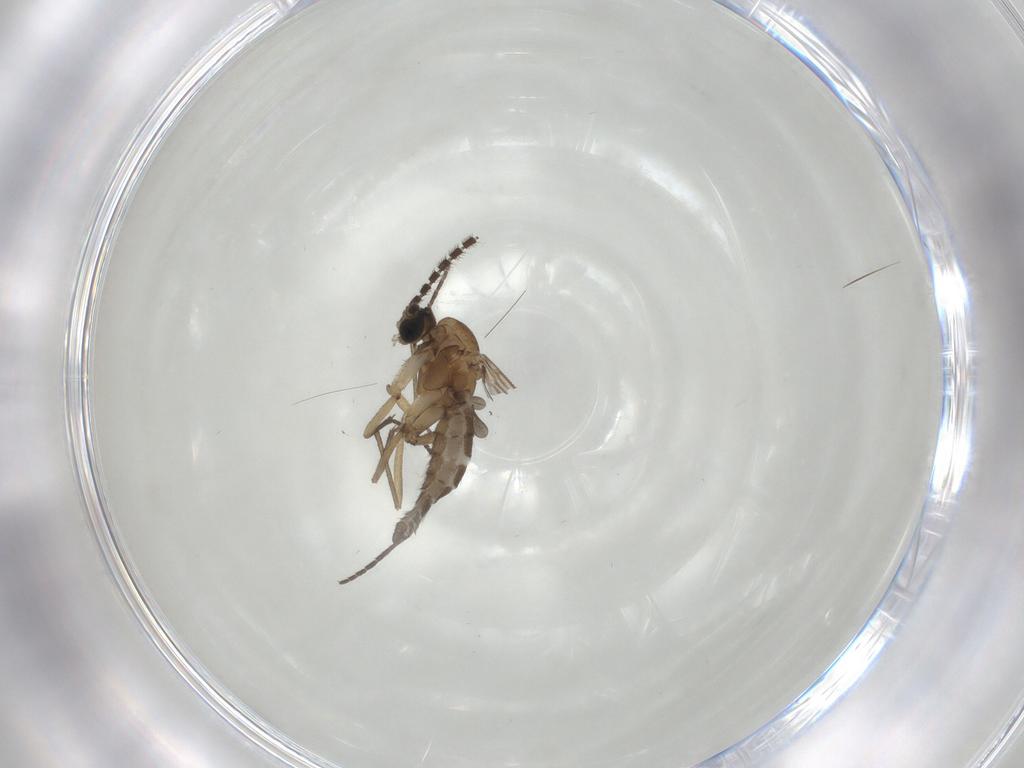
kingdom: Animalia
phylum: Arthropoda
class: Insecta
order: Diptera
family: Sciaridae
